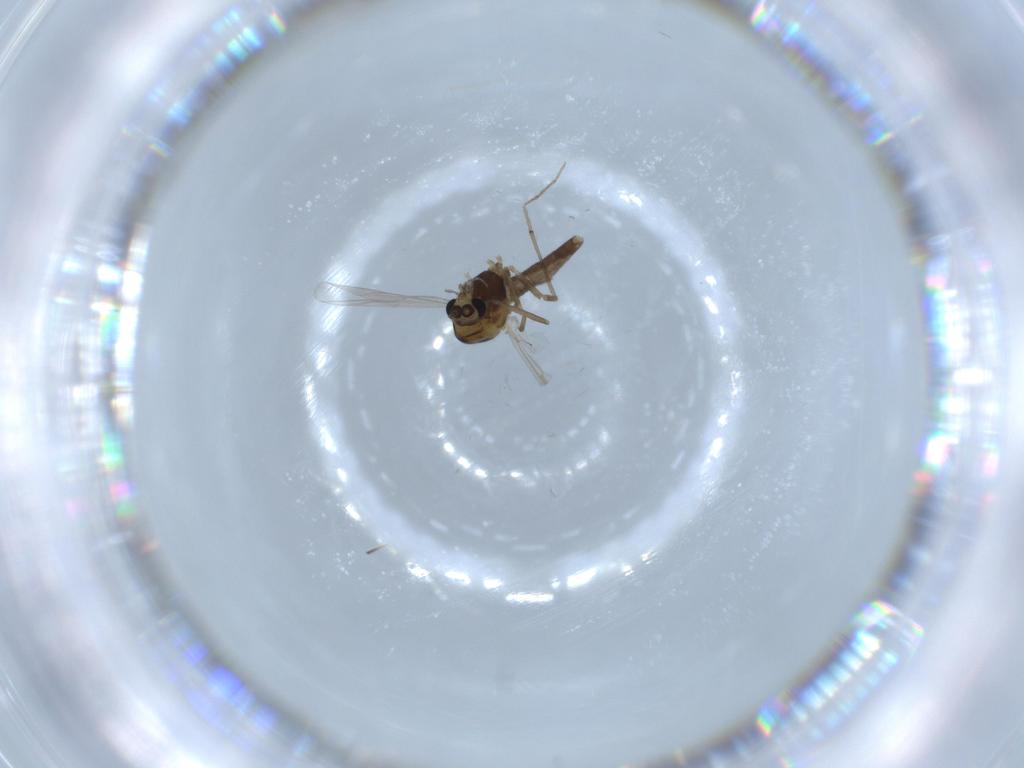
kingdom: Animalia
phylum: Arthropoda
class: Insecta
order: Diptera
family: Chironomidae
